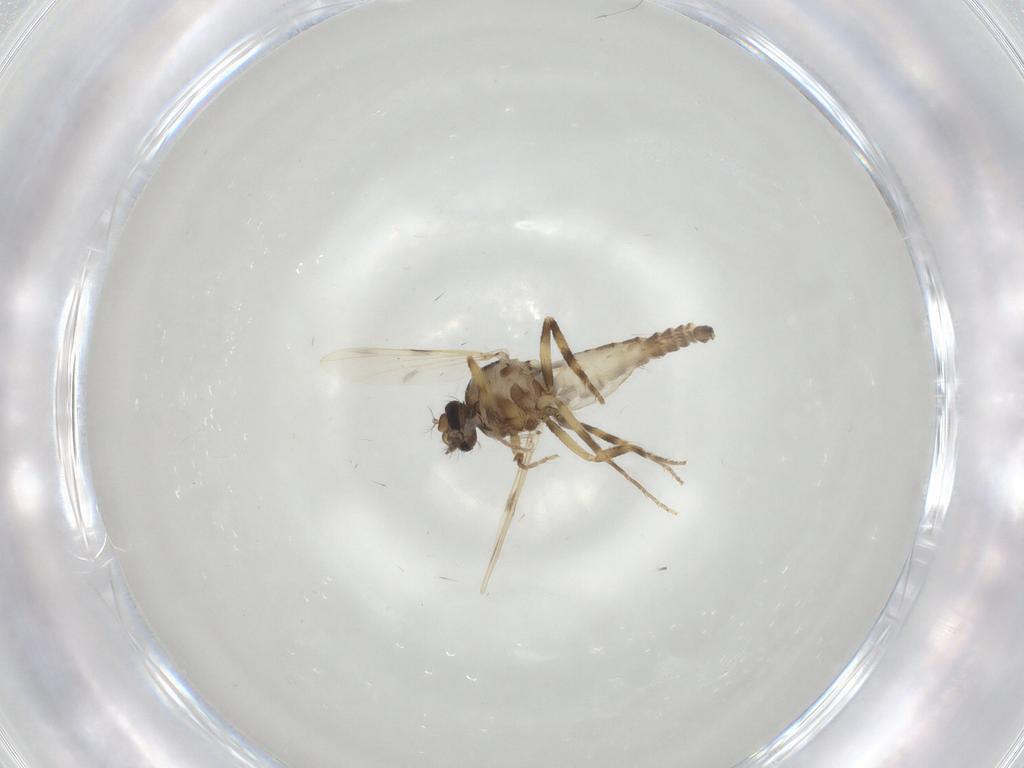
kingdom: Animalia
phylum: Arthropoda
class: Insecta
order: Diptera
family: Ceratopogonidae
